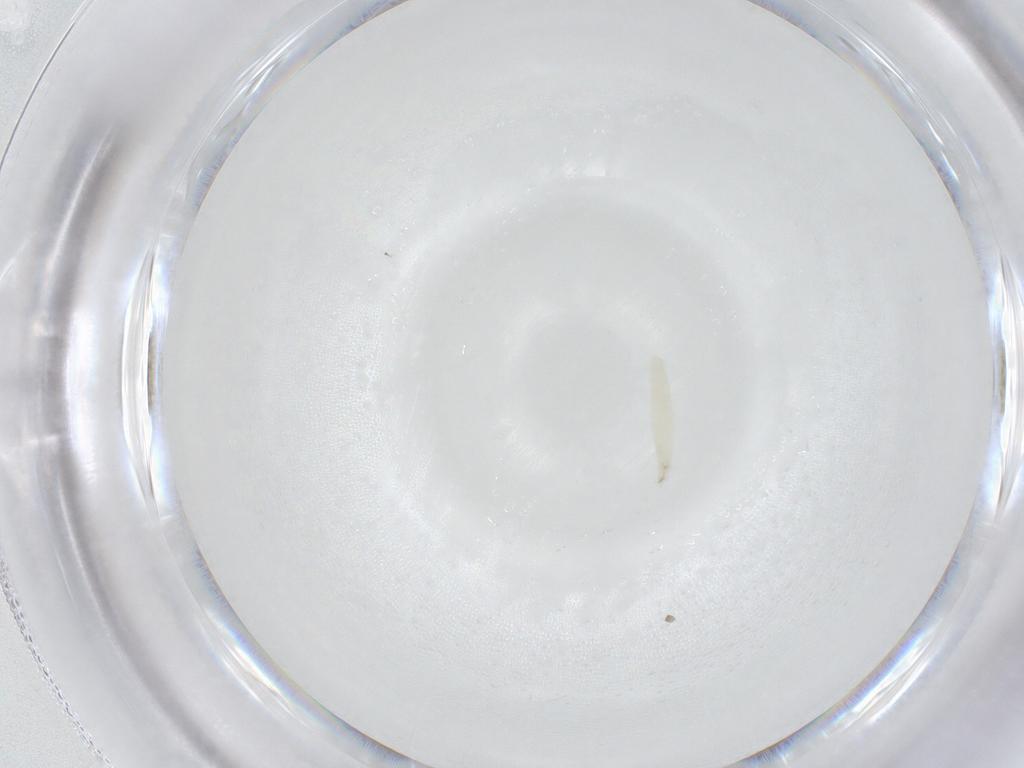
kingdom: Animalia
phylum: Arthropoda
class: Insecta
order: Diptera
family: Sarcophagidae
